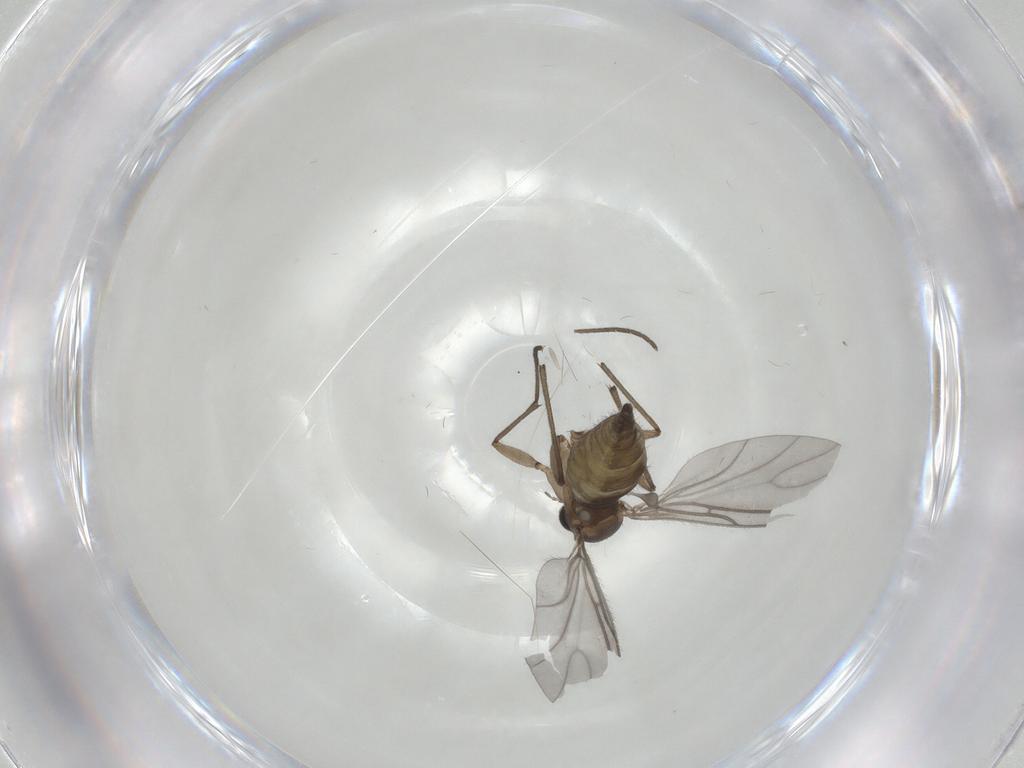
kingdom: Animalia
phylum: Arthropoda
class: Insecta
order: Diptera
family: Sciaridae
